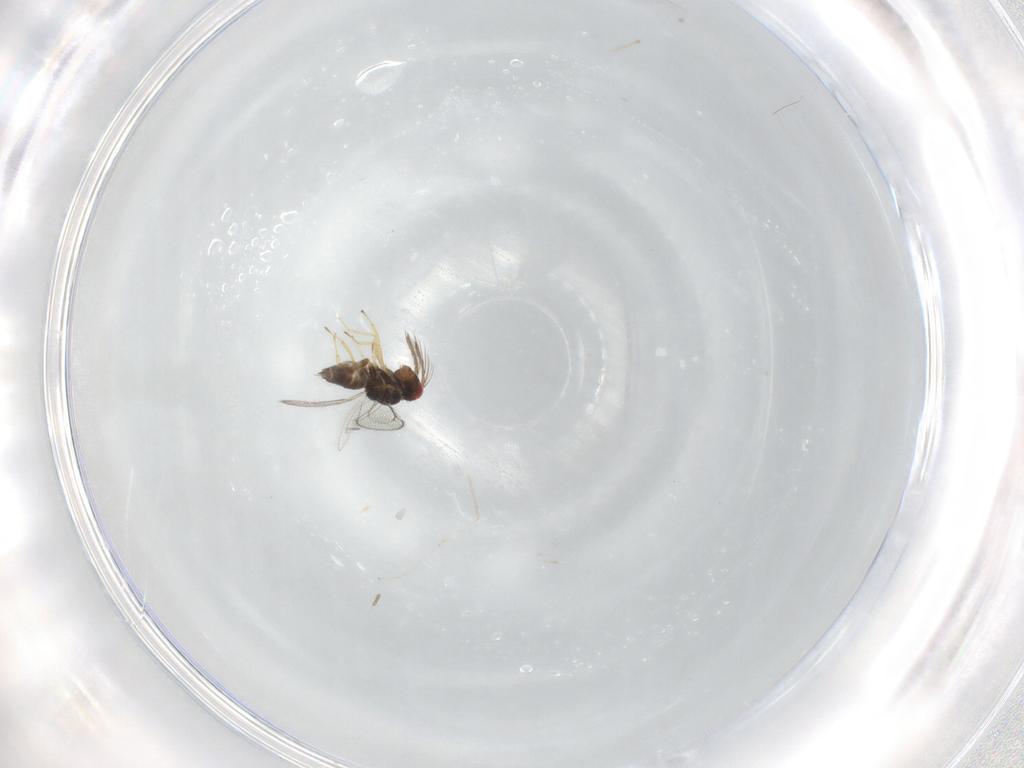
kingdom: Animalia
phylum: Arthropoda
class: Insecta
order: Hymenoptera
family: Eulophidae
